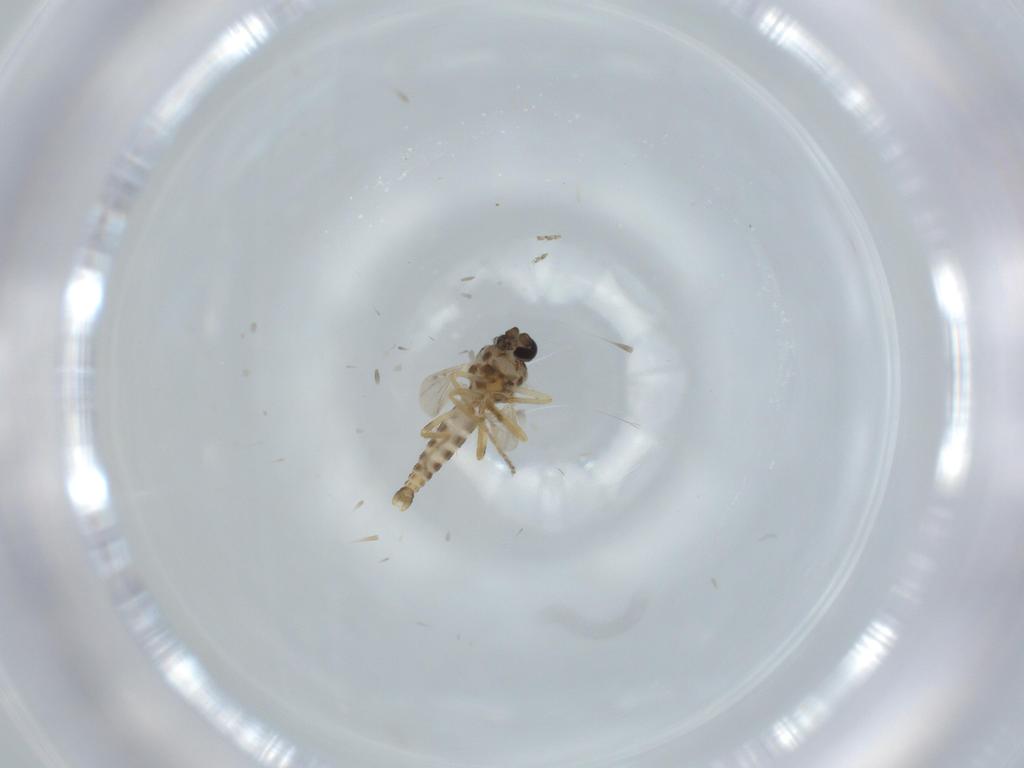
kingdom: Animalia
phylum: Arthropoda
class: Insecta
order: Diptera
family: Ceratopogonidae
